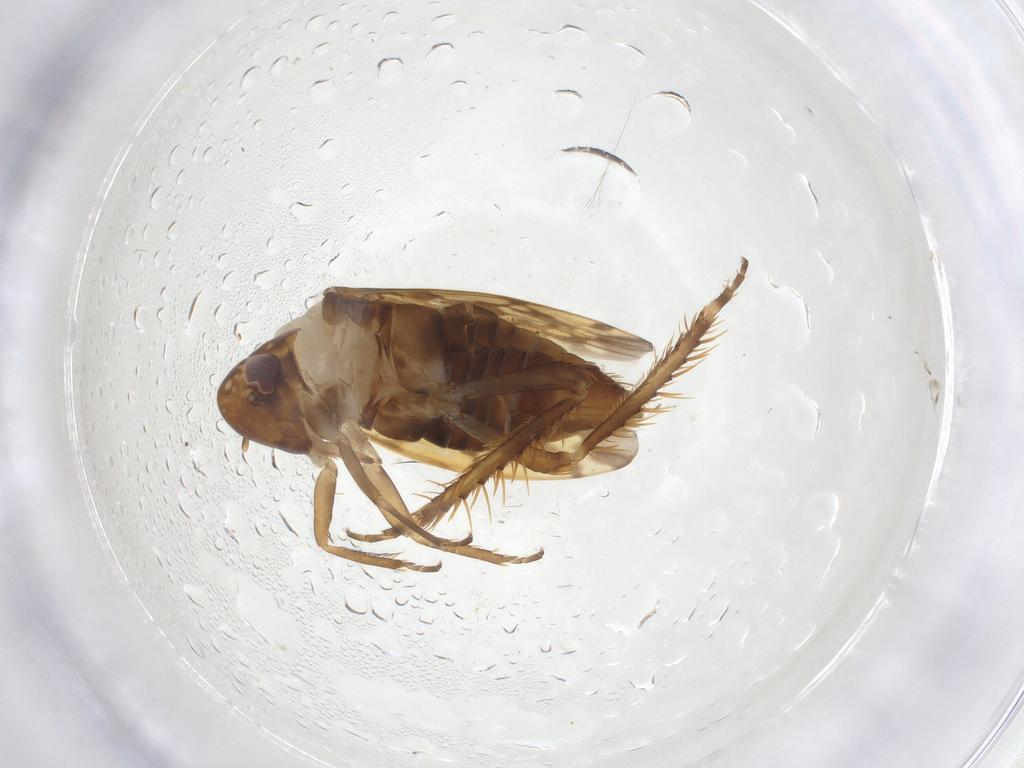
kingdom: Animalia
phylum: Arthropoda
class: Insecta
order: Hemiptera
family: Cicadellidae
